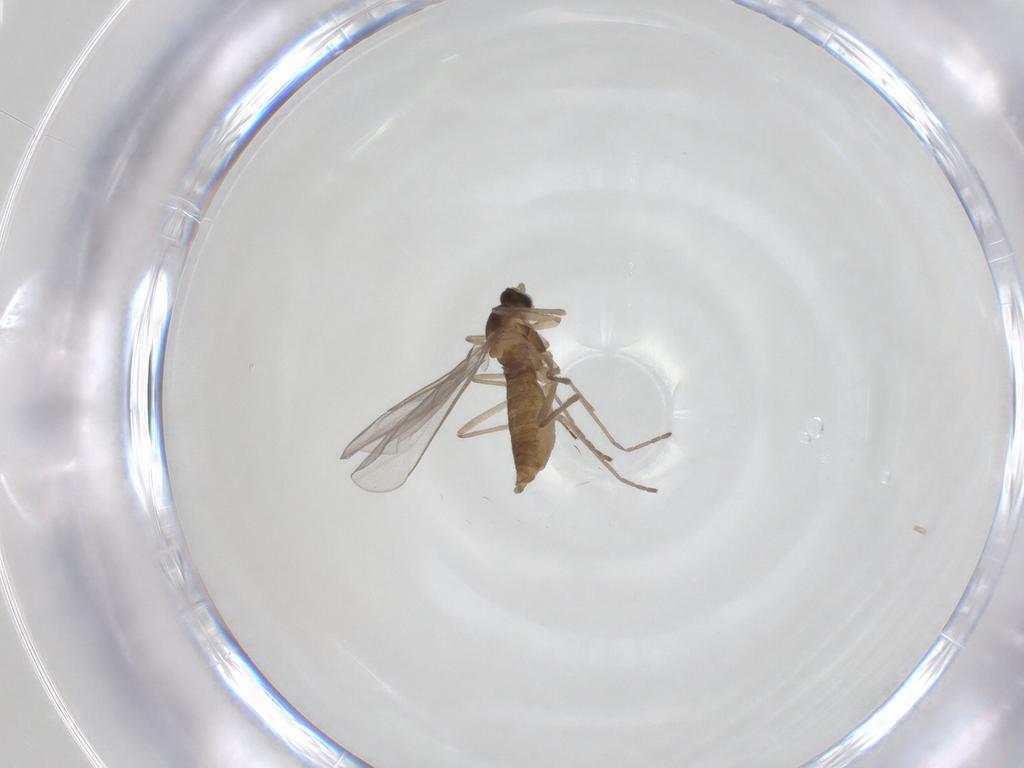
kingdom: Animalia
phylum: Arthropoda
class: Insecta
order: Diptera
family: Cecidomyiidae
